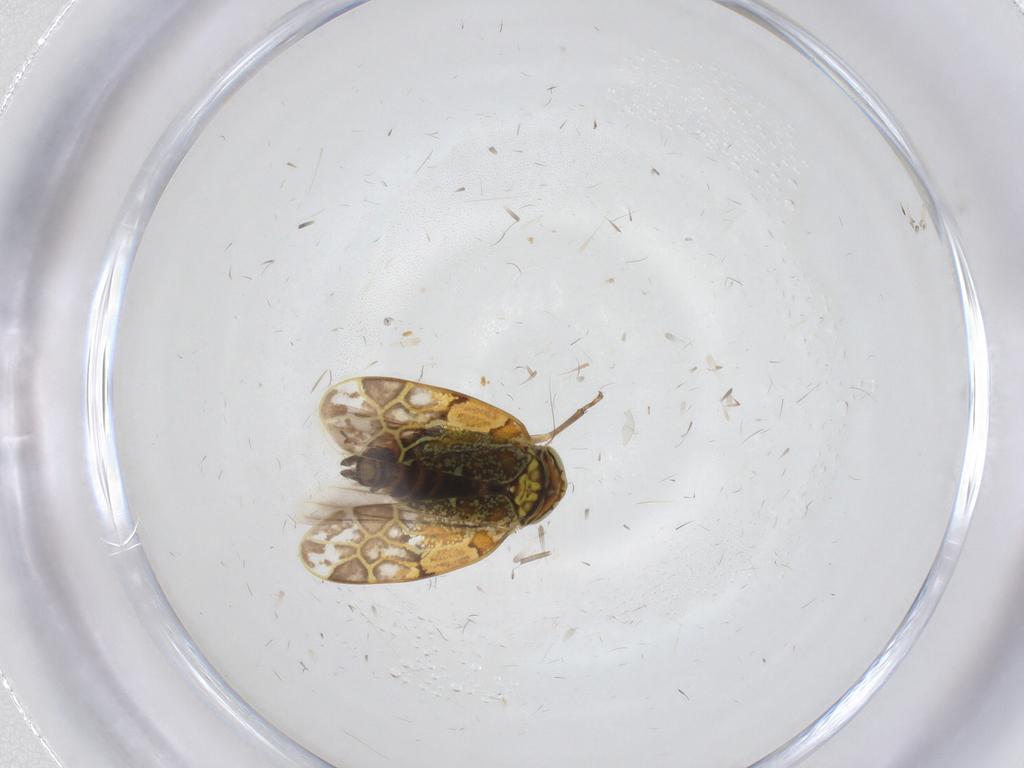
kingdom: Animalia
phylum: Arthropoda
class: Insecta
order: Hemiptera
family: Cicadellidae
